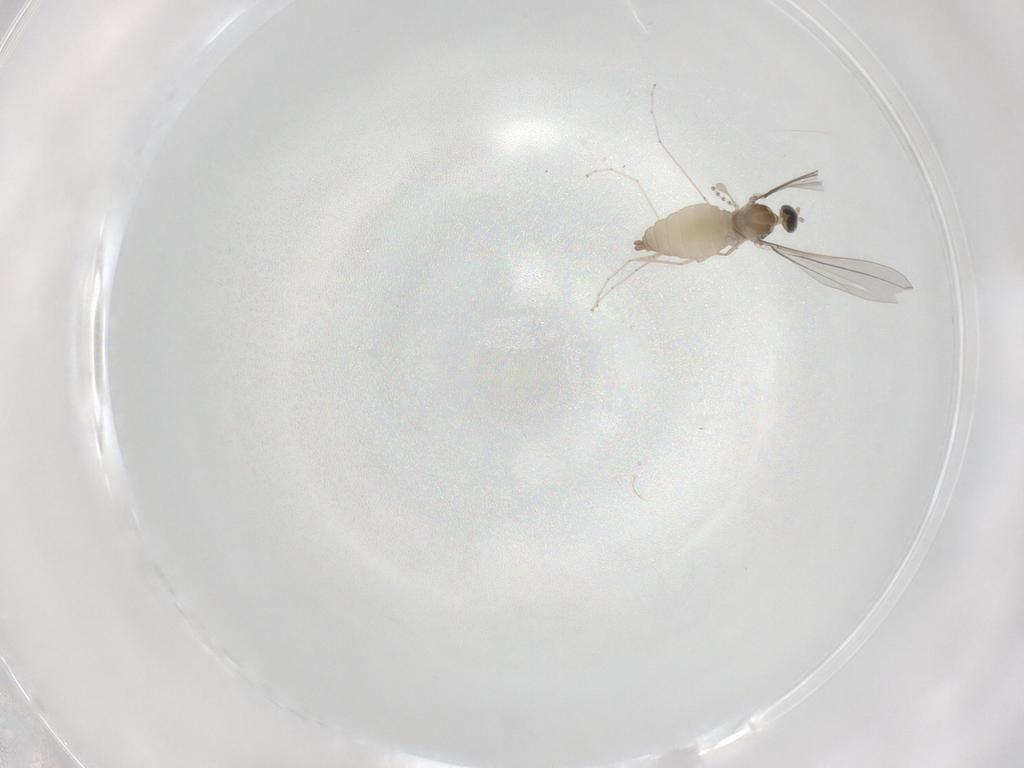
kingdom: Animalia
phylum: Arthropoda
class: Insecta
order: Diptera
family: Cecidomyiidae
